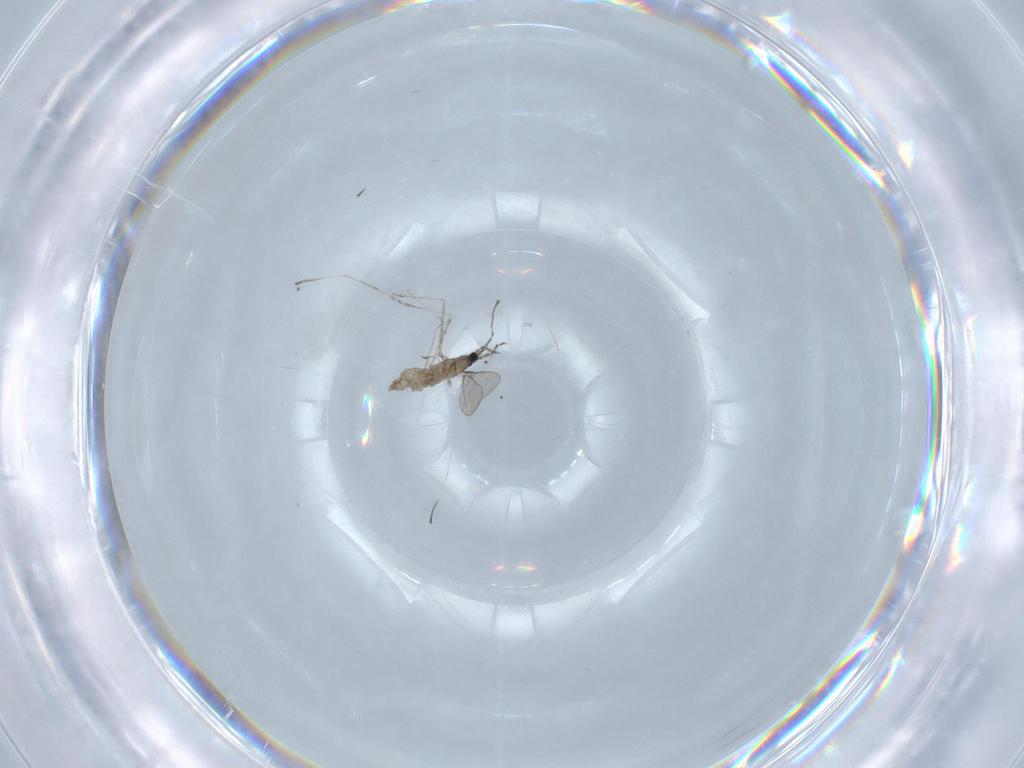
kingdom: Animalia
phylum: Arthropoda
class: Insecta
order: Diptera
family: Cecidomyiidae
